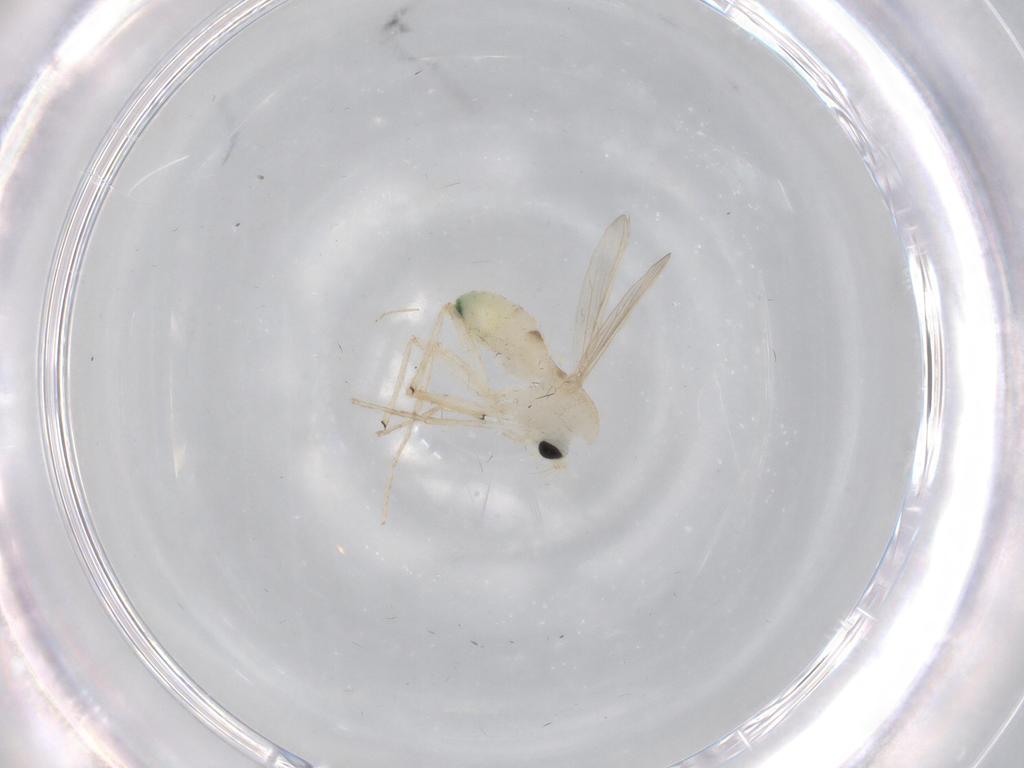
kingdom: Animalia
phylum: Arthropoda
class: Insecta
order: Diptera
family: Chironomidae
